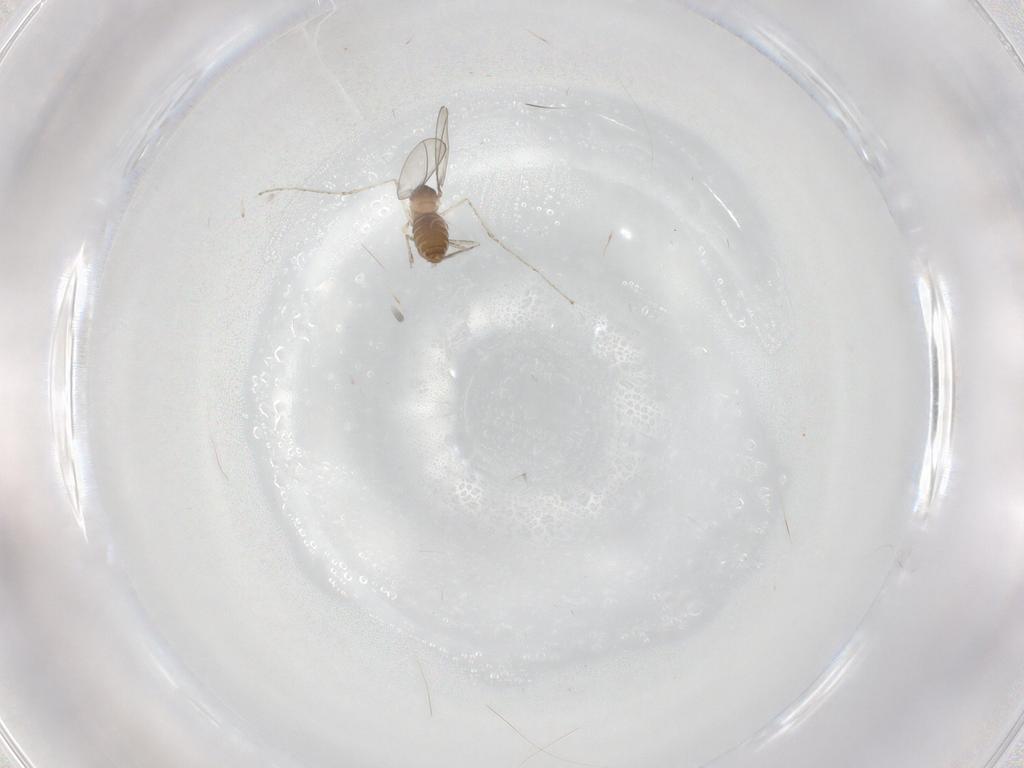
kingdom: Animalia
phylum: Arthropoda
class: Insecta
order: Diptera
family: Cecidomyiidae
